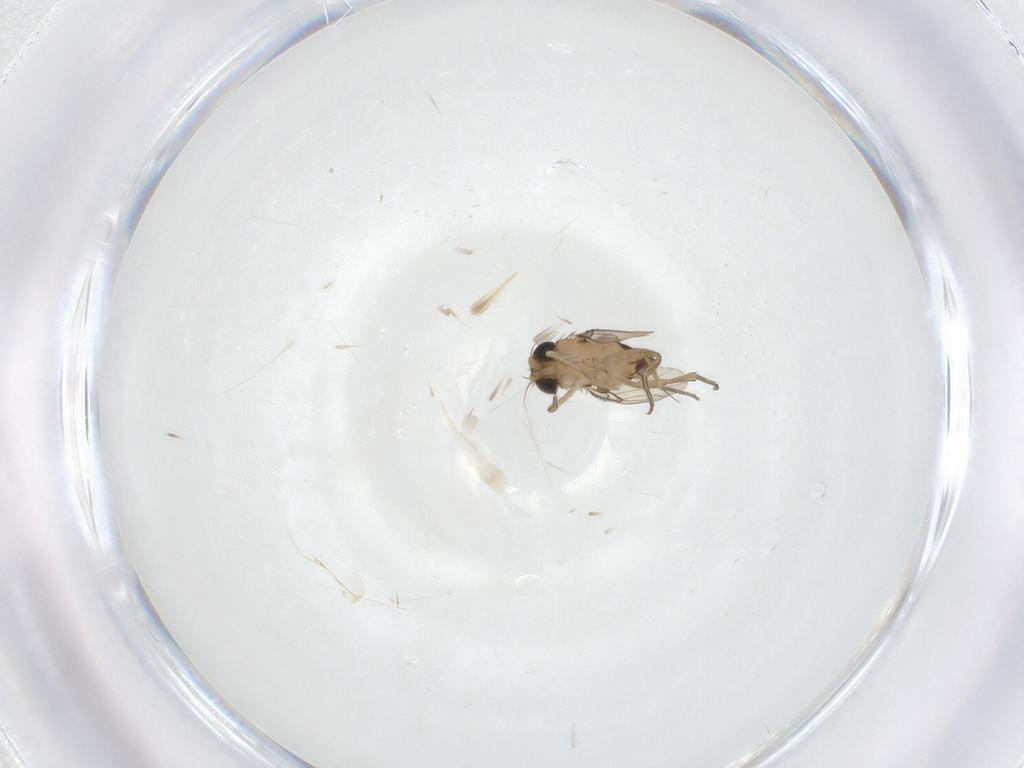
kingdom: Animalia
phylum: Arthropoda
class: Insecta
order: Diptera
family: Phoridae
